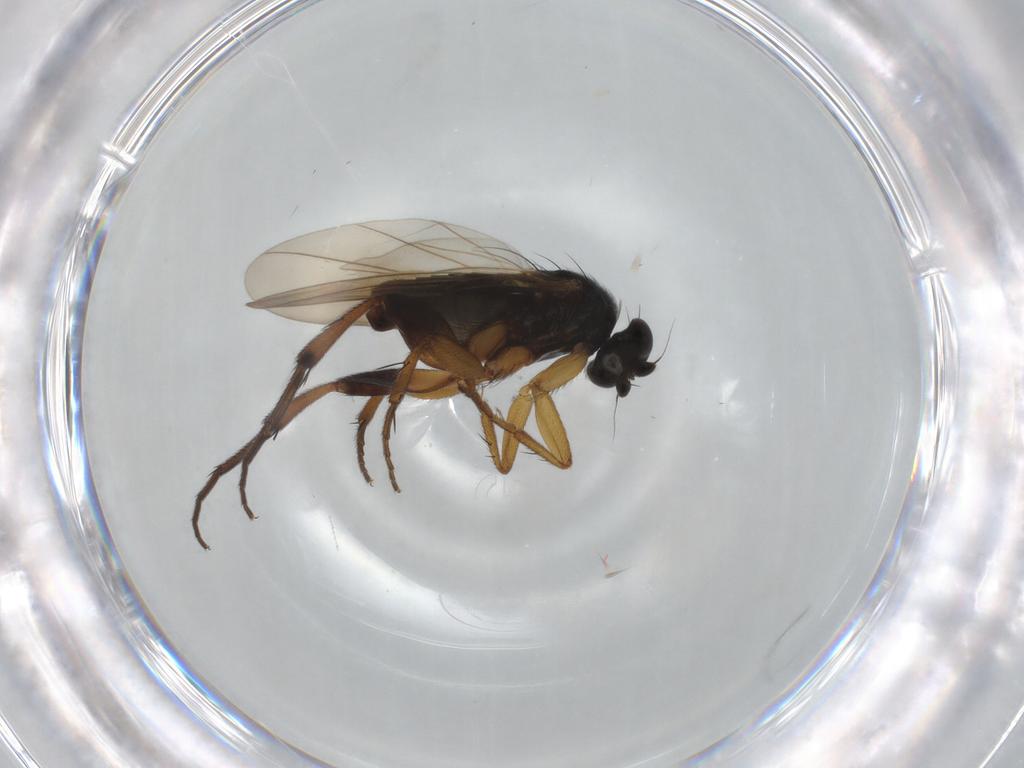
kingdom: Animalia
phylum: Arthropoda
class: Insecta
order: Diptera
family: Phoridae
